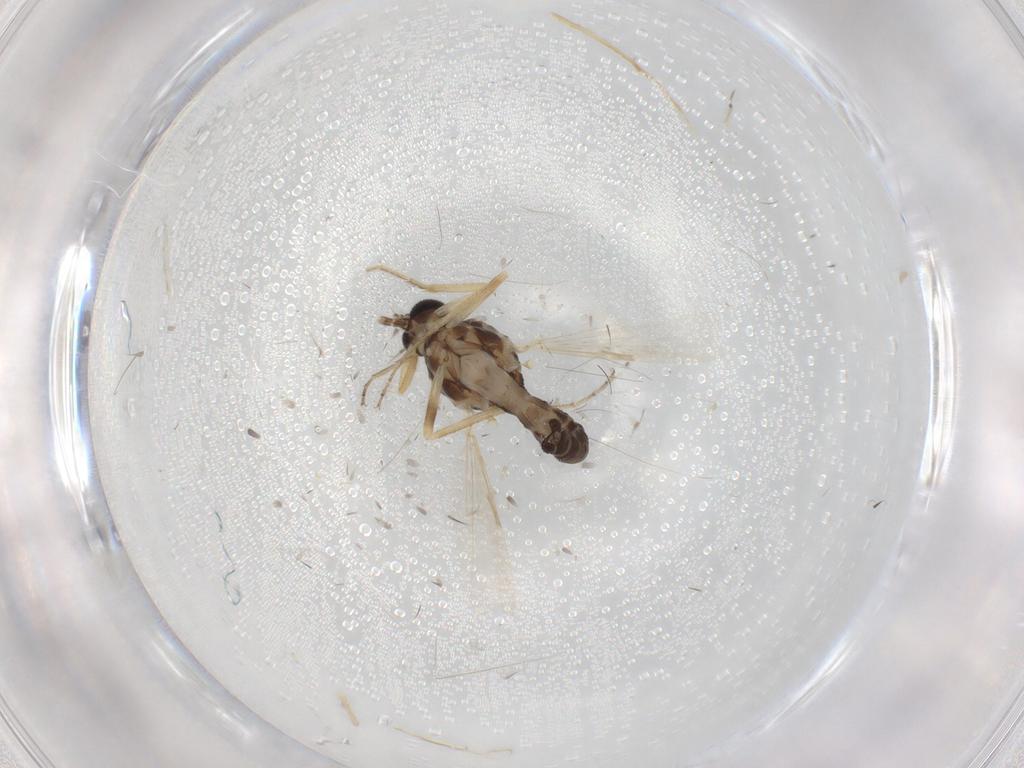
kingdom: Animalia
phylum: Arthropoda
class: Insecta
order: Diptera
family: Ceratopogonidae
